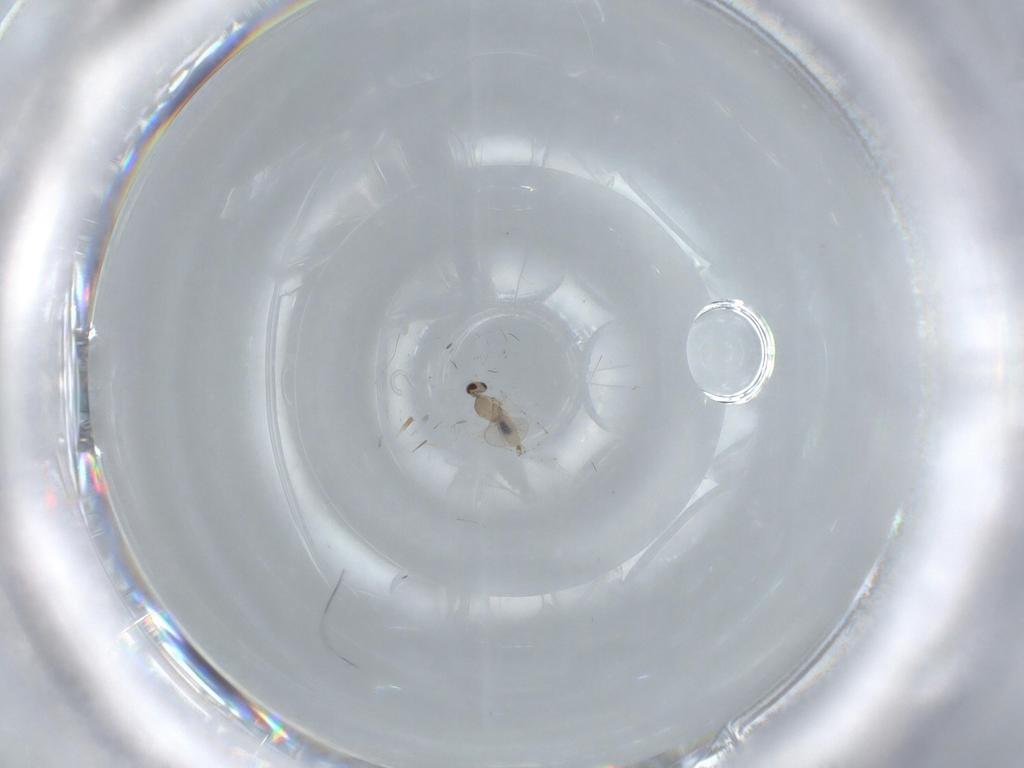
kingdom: Animalia
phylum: Arthropoda
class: Insecta
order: Diptera
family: Cecidomyiidae
